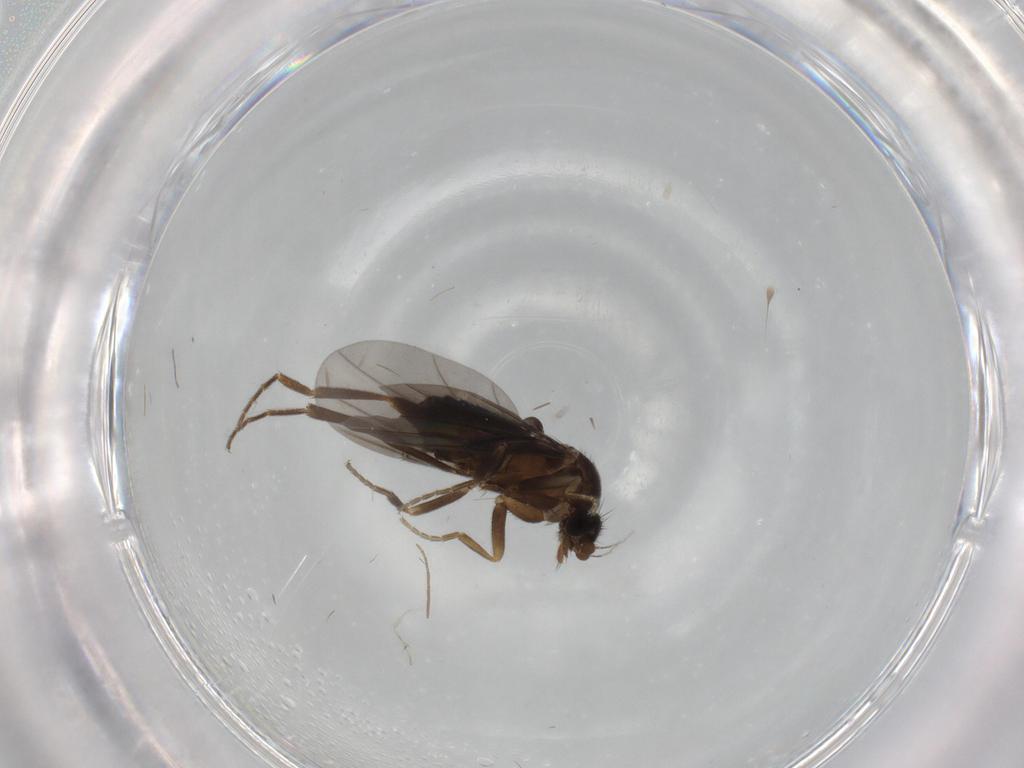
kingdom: Animalia
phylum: Arthropoda
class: Insecta
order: Diptera
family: Phoridae
